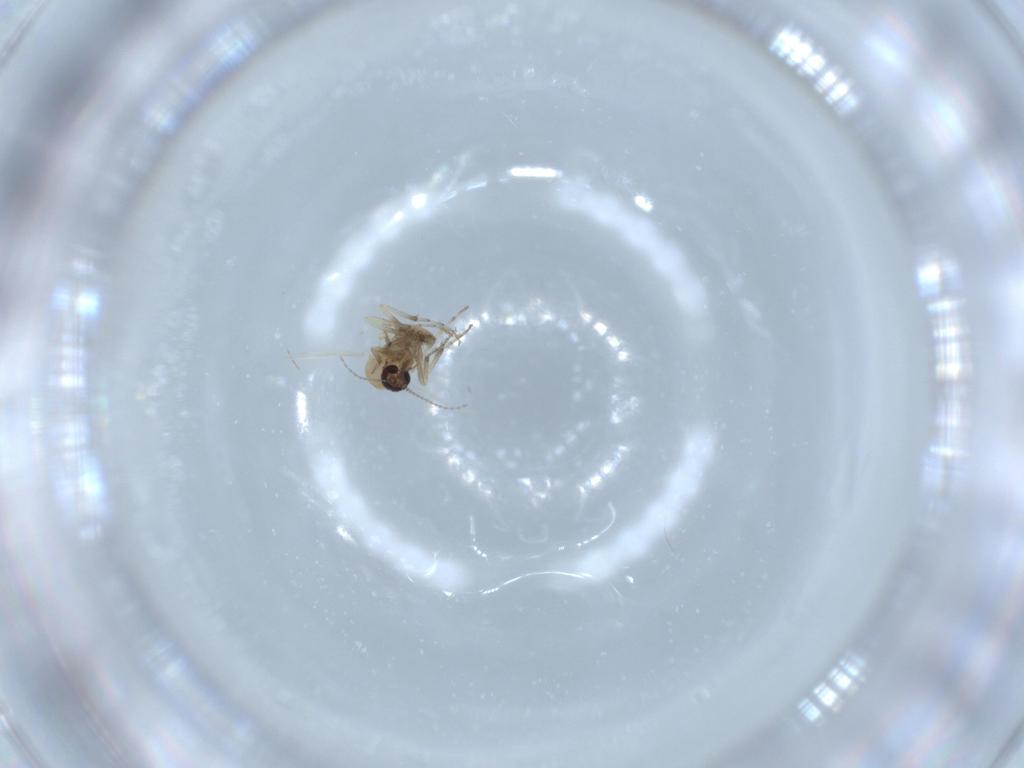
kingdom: Animalia
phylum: Arthropoda
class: Insecta
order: Diptera
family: Ceratopogonidae
